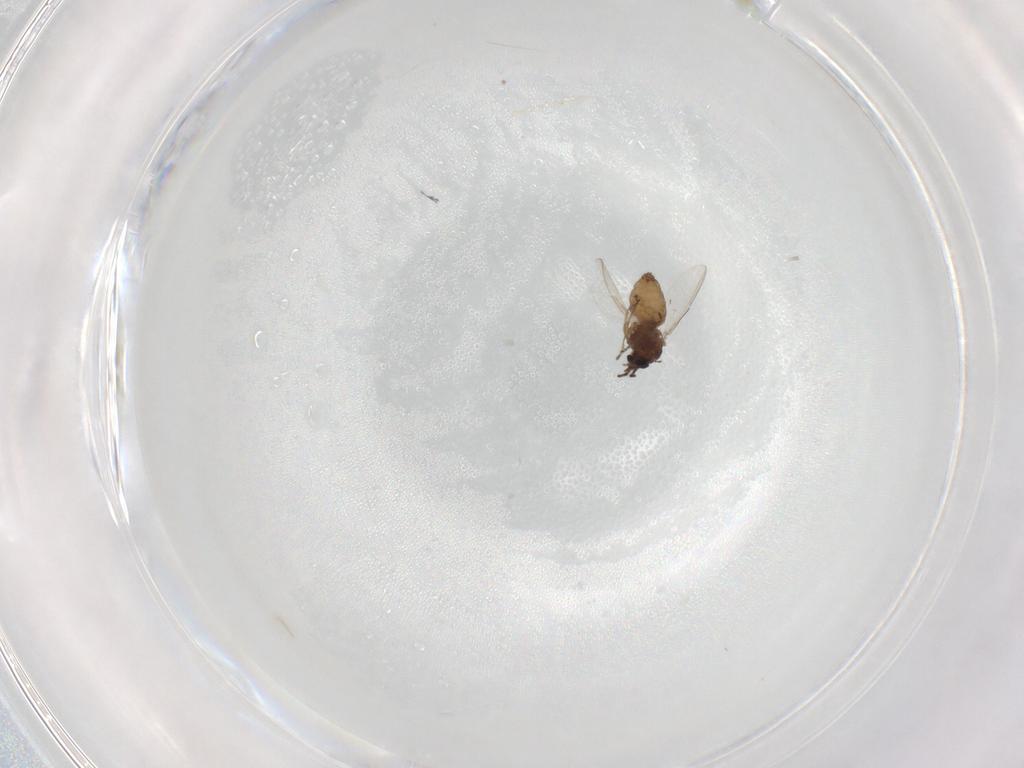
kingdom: Animalia
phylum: Arthropoda
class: Insecta
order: Diptera
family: Ceratopogonidae
